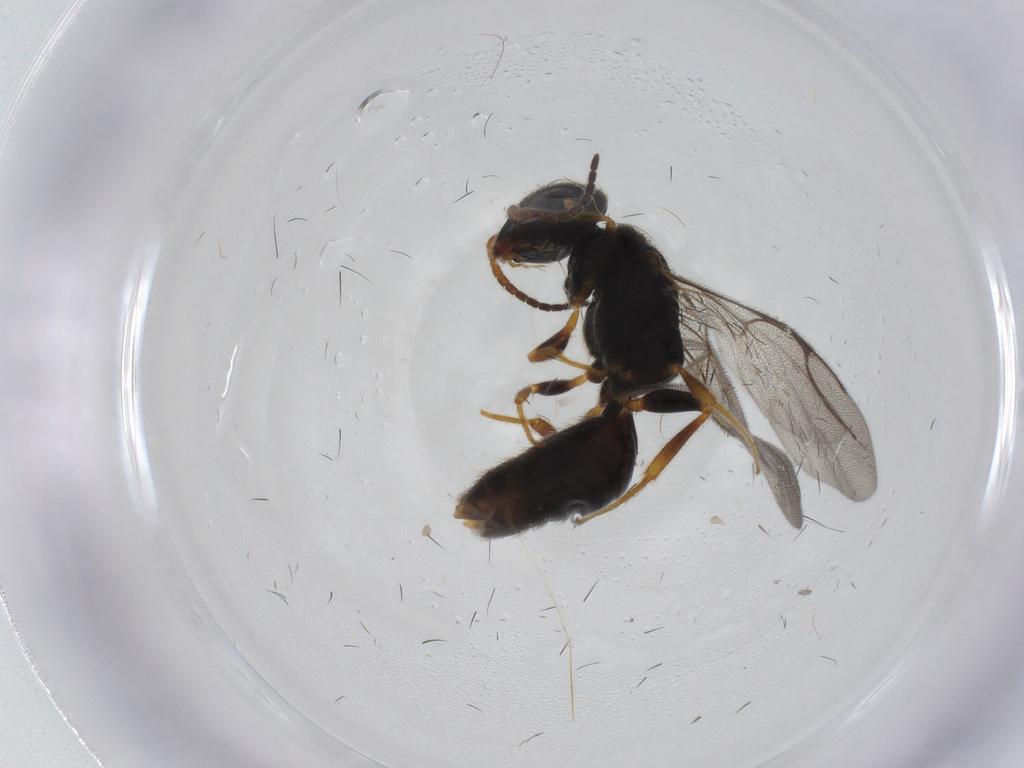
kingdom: Animalia
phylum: Arthropoda
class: Insecta
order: Hymenoptera
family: Bethylidae
